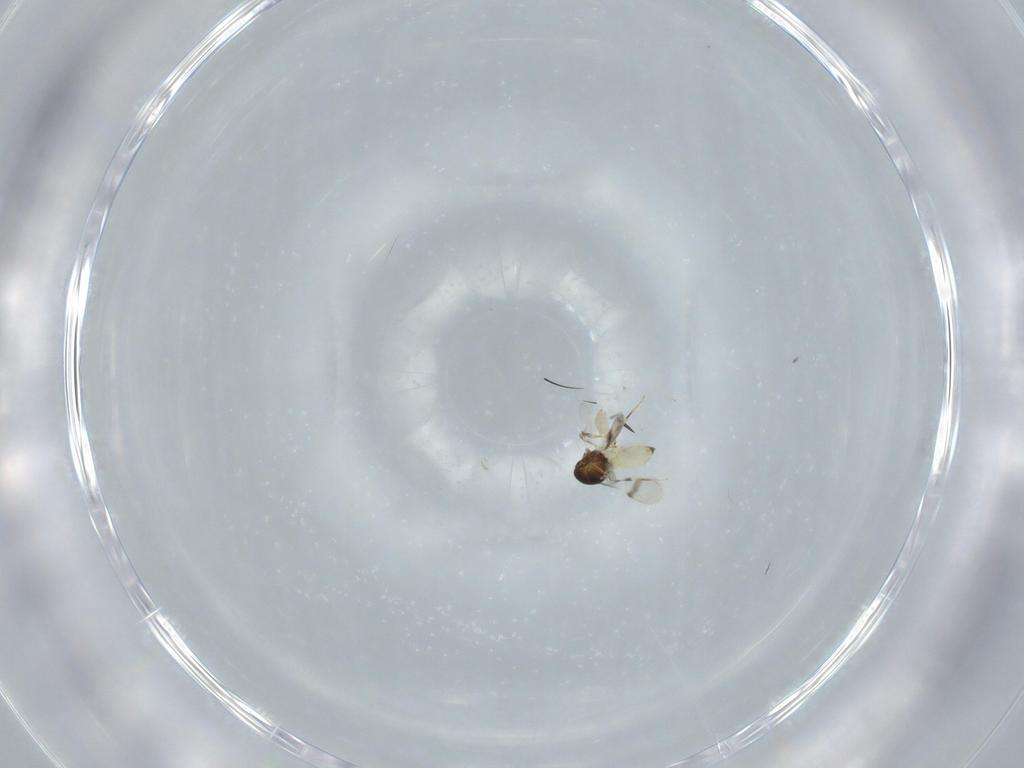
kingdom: Animalia
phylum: Arthropoda
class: Insecta
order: Hymenoptera
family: Scelionidae
